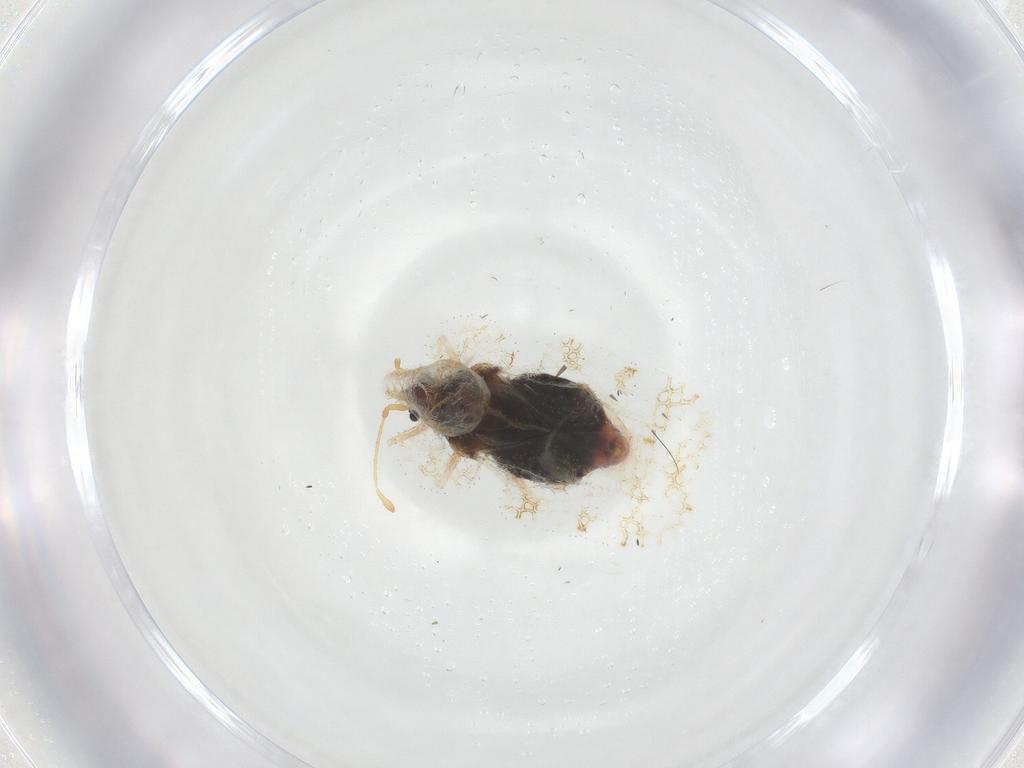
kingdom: Animalia
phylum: Arthropoda
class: Insecta
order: Hemiptera
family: Miridae
